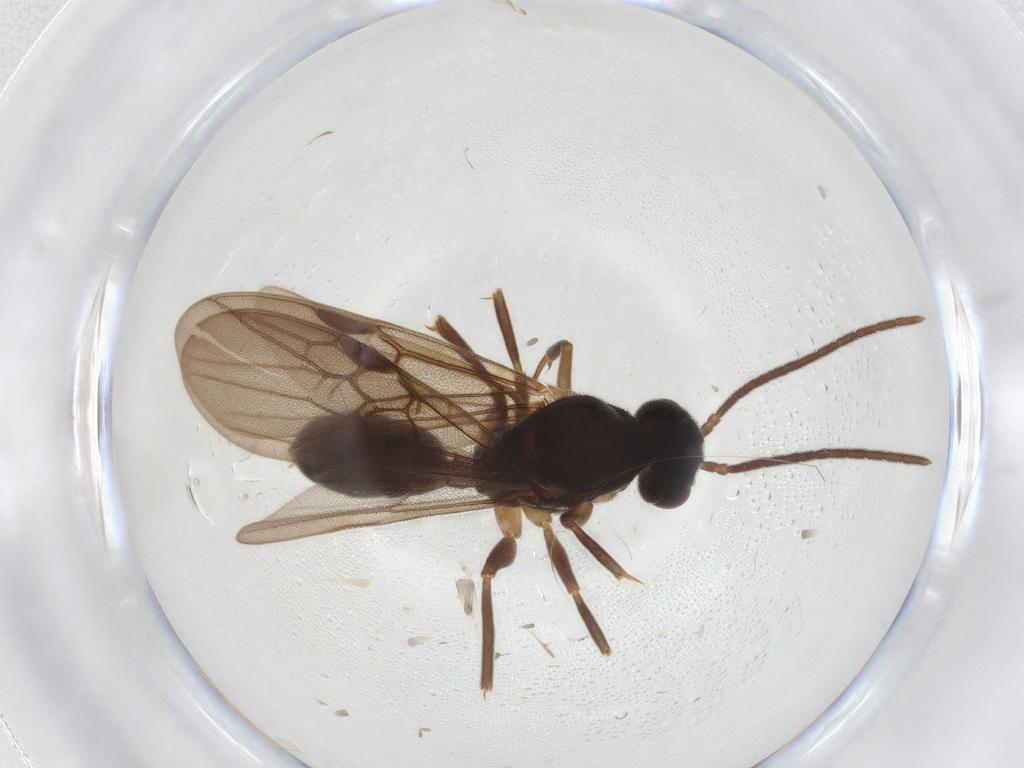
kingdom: Animalia
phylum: Arthropoda
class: Insecta
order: Hymenoptera
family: Formicidae
